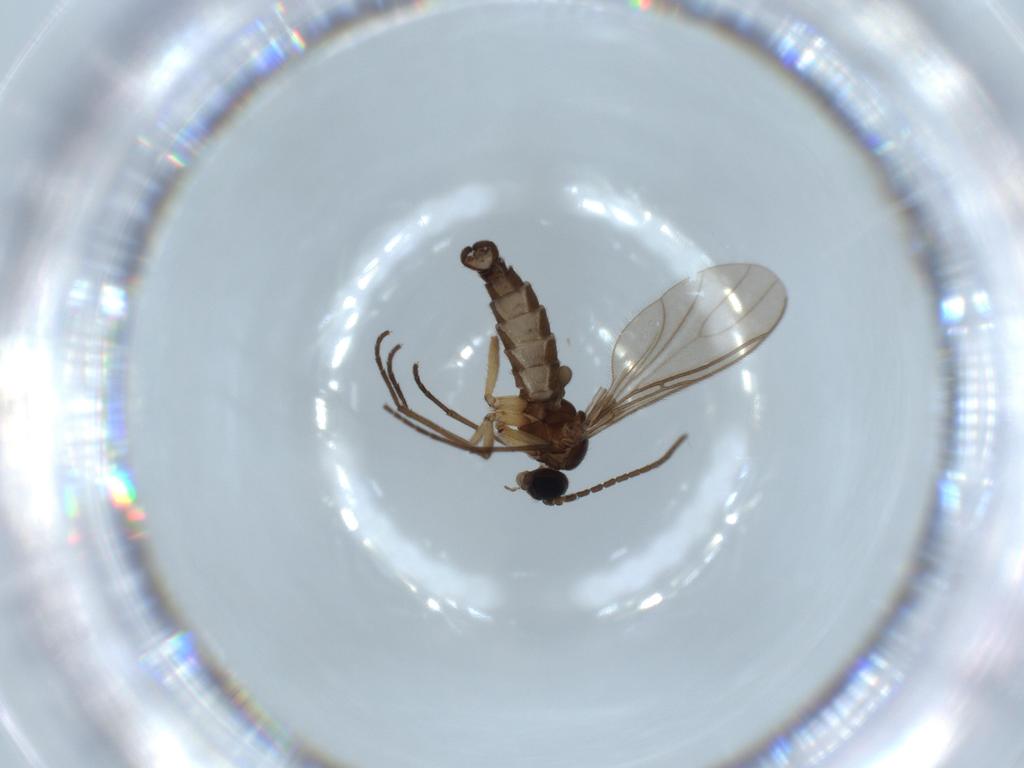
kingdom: Animalia
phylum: Arthropoda
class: Insecta
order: Diptera
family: Sciaridae
